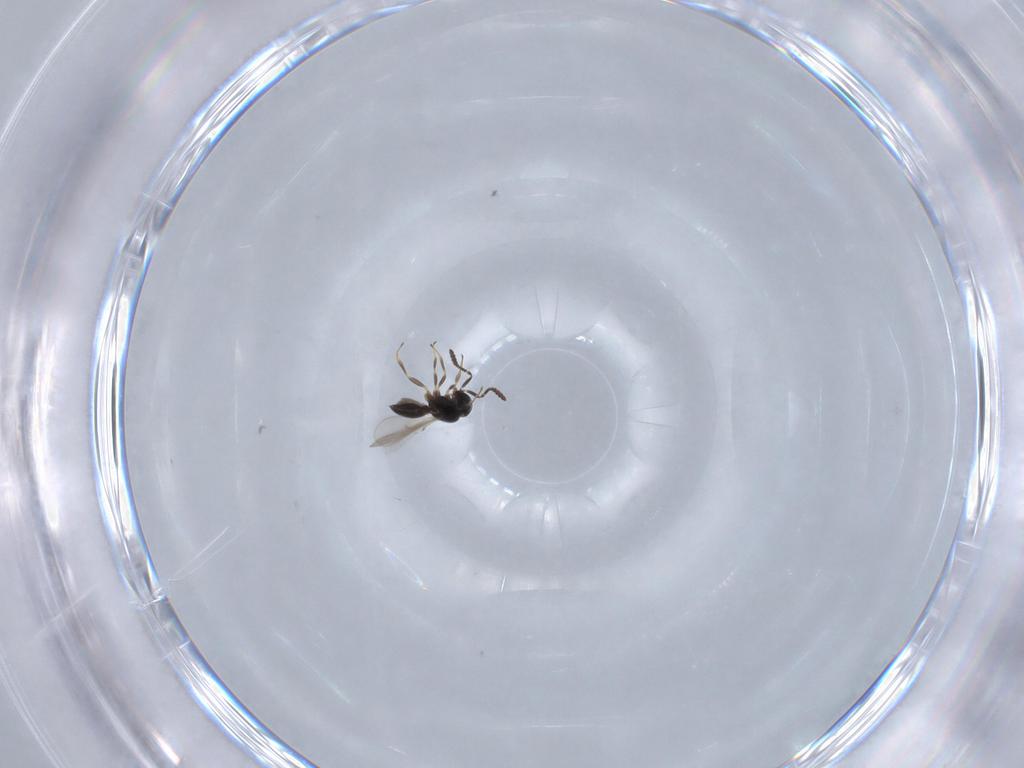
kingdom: Animalia
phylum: Arthropoda
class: Insecta
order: Hymenoptera
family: Scelionidae
